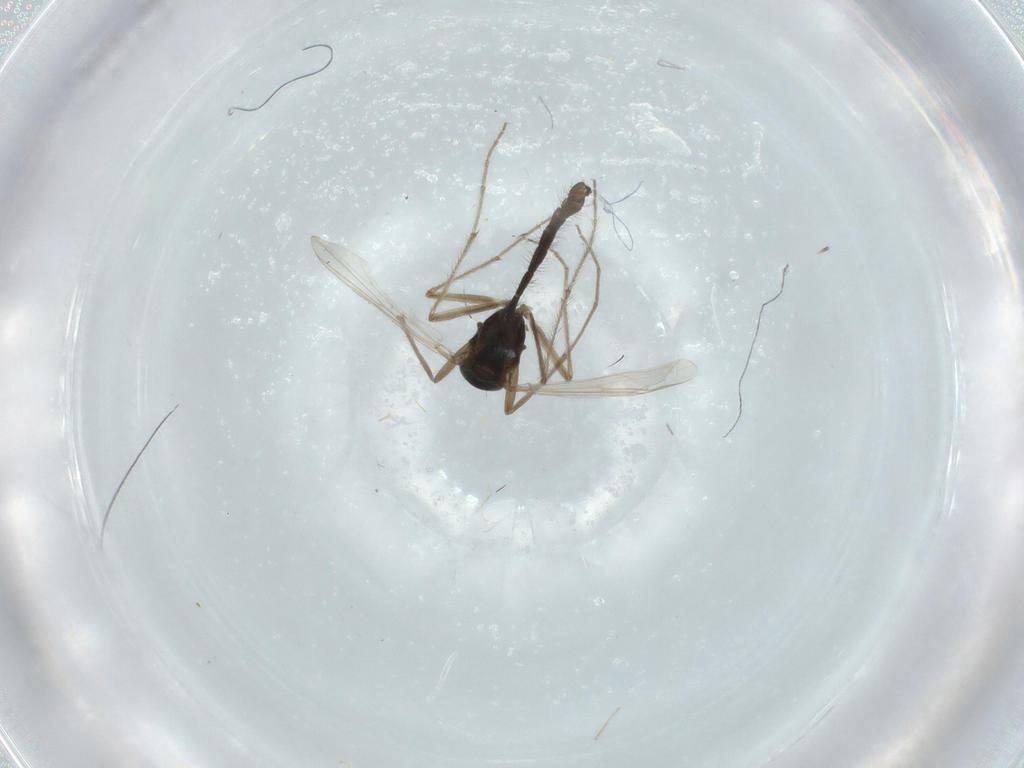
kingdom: Animalia
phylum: Arthropoda
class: Insecta
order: Diptera
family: Chironomidae
